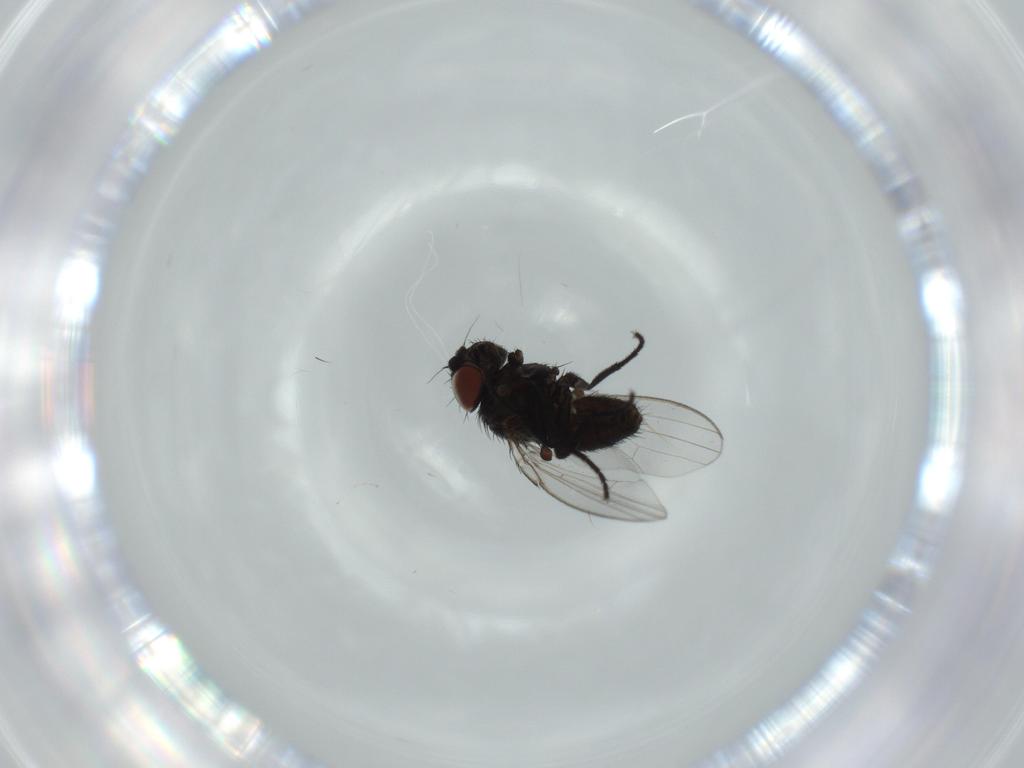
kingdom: Animalia
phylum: Arthropoda
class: Insecta
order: Diptera
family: Milichiidae
